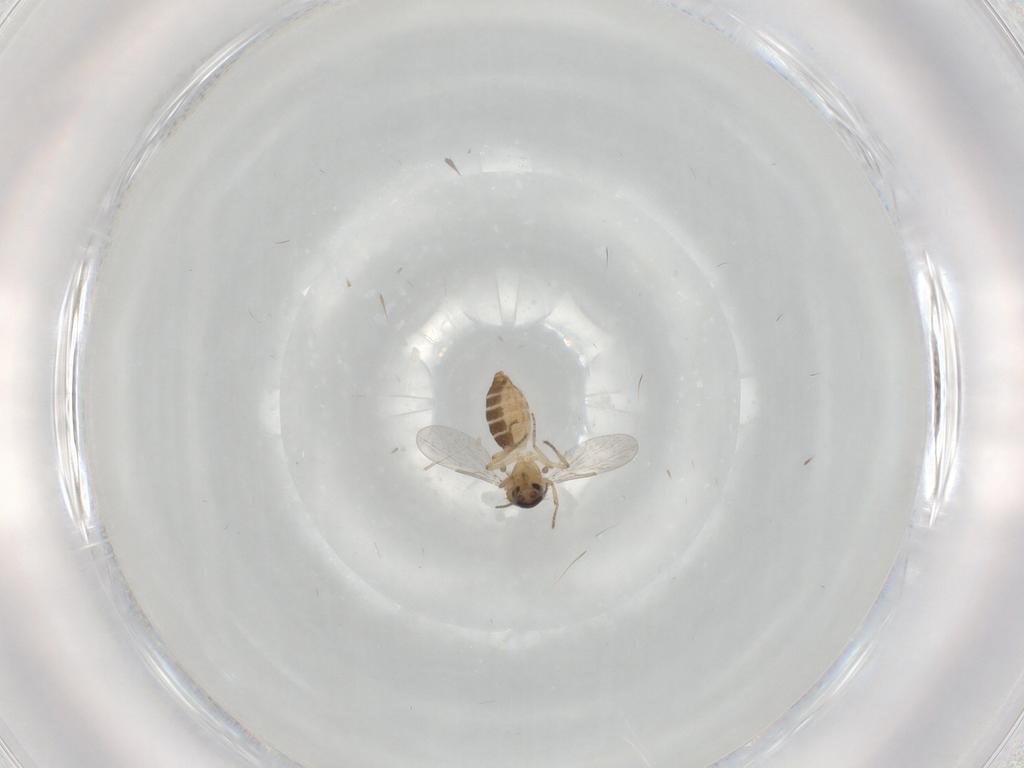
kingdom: Animalia
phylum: Arthropoda
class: Insecta
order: Diptera
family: Ceratopogonidae
